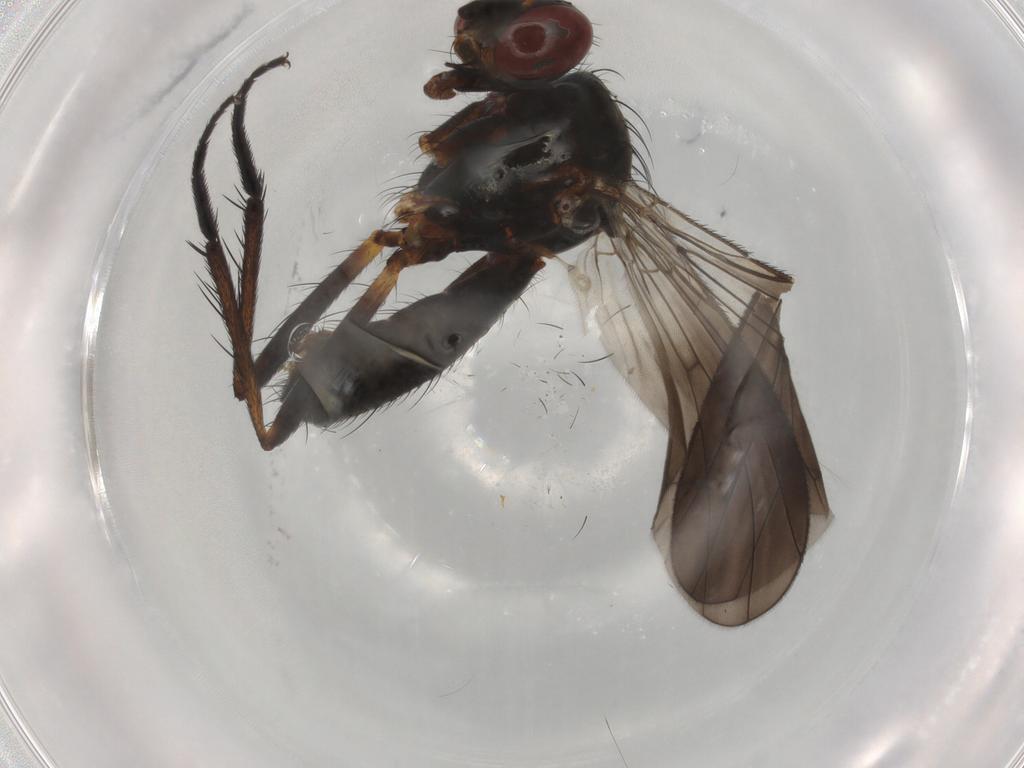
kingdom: Animalia
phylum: Arthropoda
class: Insecta
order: Diptera
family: Anthomyiidae
